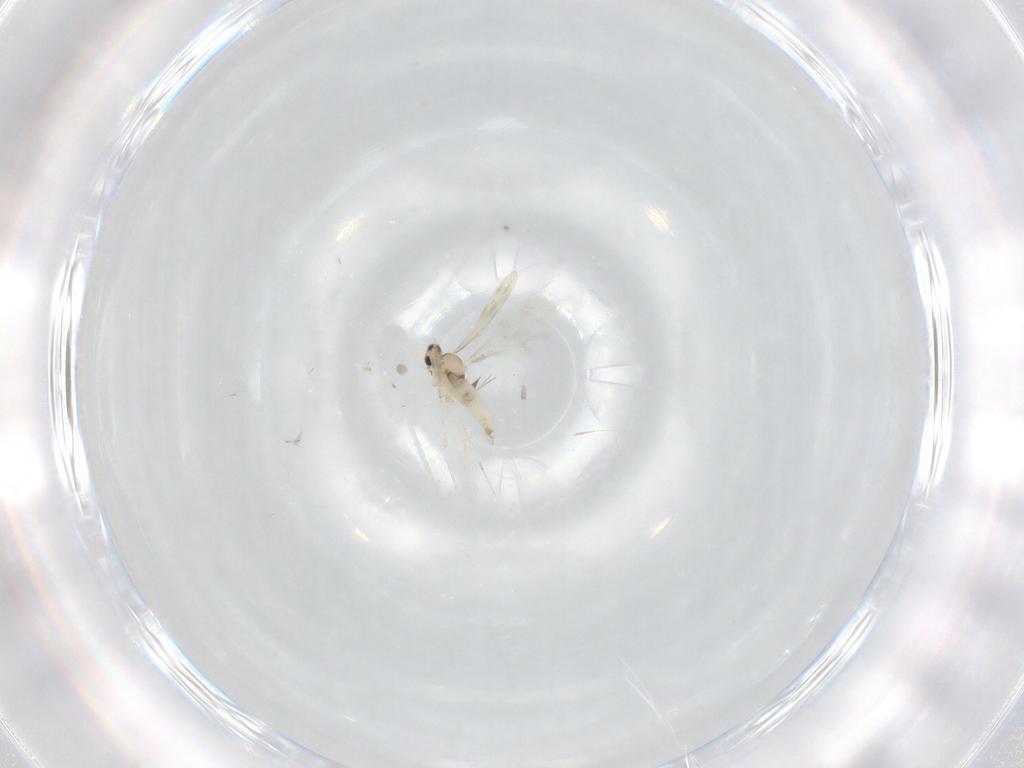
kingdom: Animalia
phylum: Arthropoda
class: Insecta
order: Diptera
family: Cecidomyiidae
